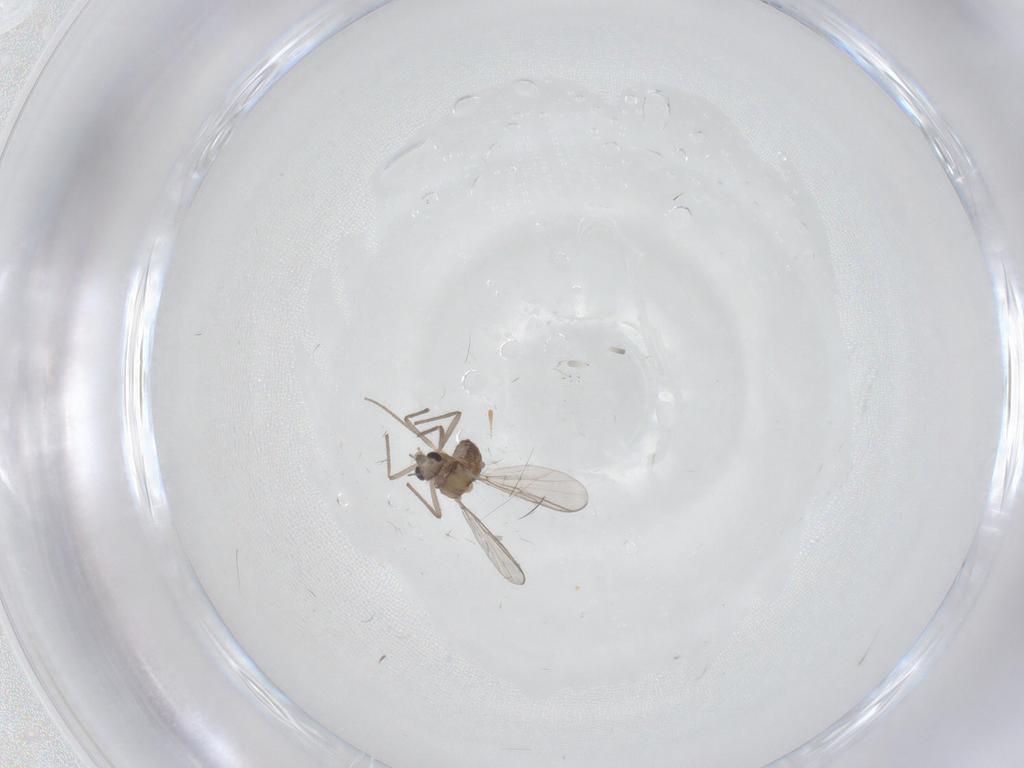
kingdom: Animalia
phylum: Arthropoda
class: Insecta
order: Diptera
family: Chironomidae
